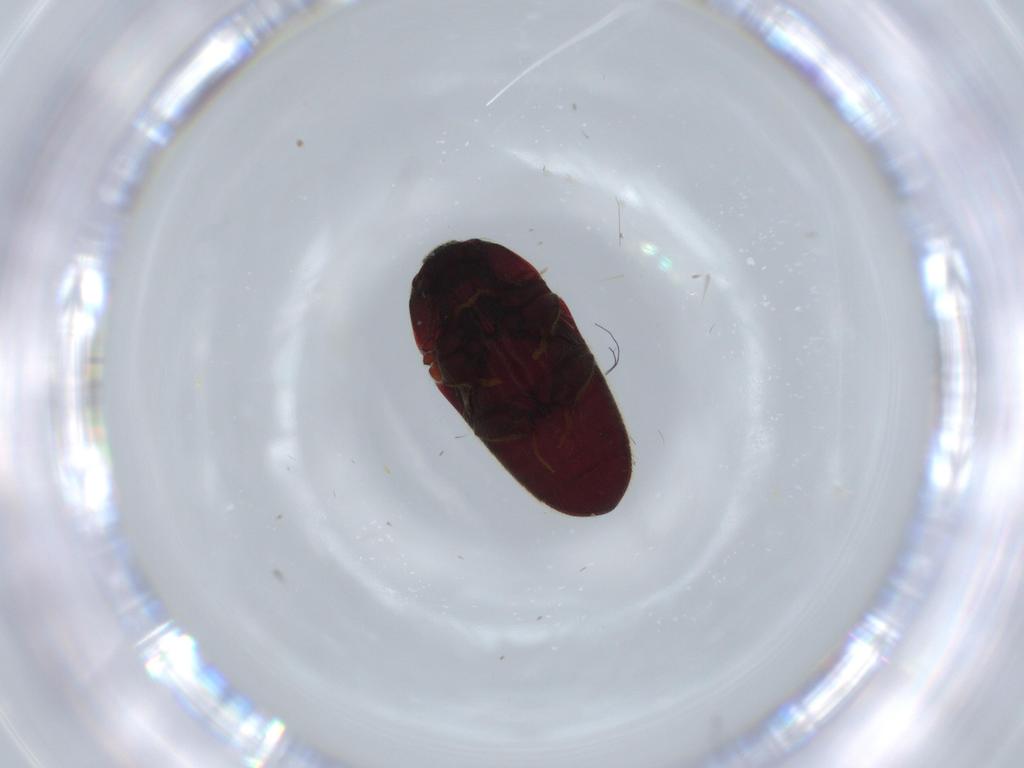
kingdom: Animalia
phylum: Arthropoda
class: Insecta
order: Coleoptera
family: Throscidae
